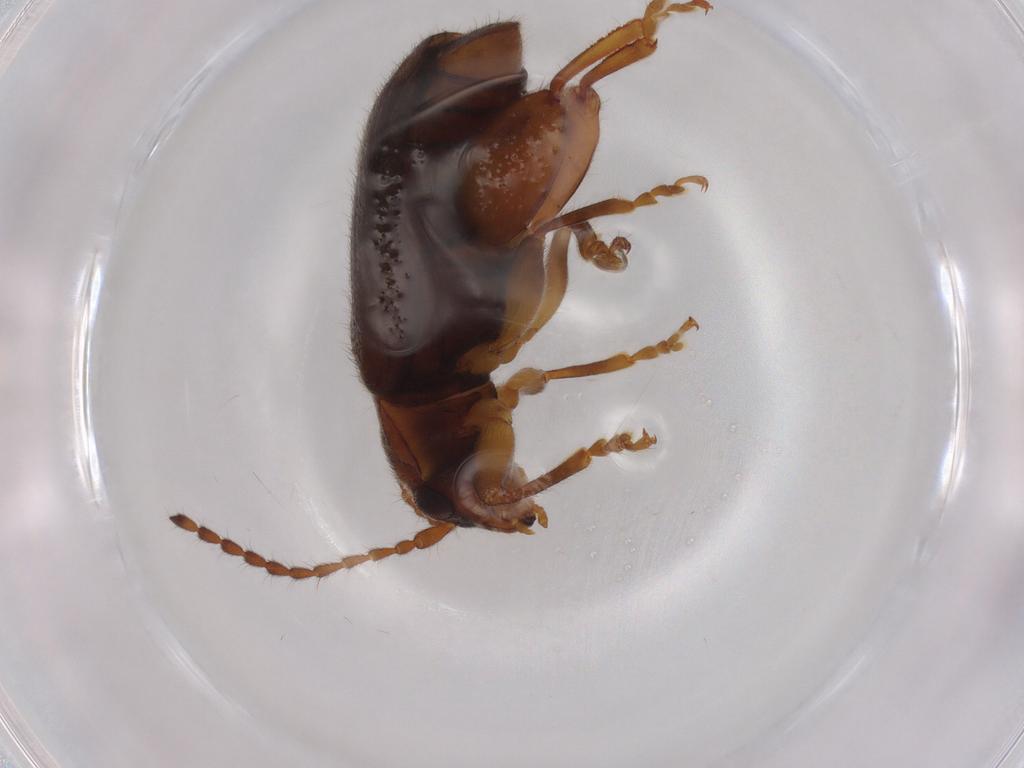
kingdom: Animalia
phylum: Arthropoda
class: Insecta
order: Coleoptera
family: Chrysomelidae
